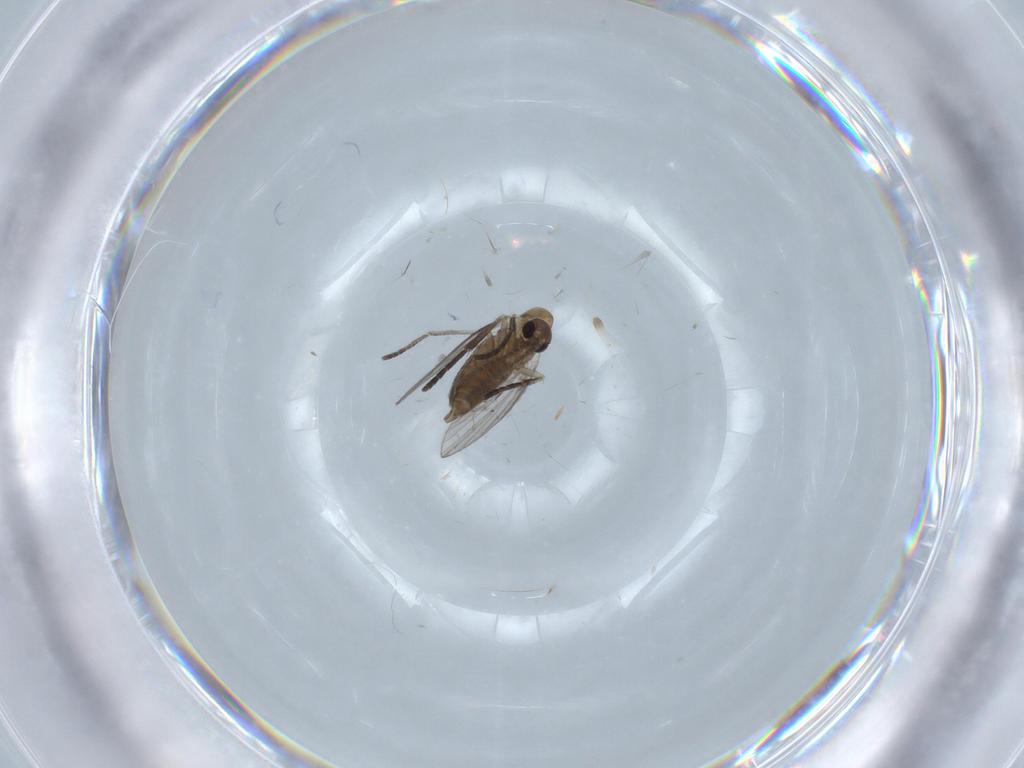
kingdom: Animalia
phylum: Arthropoda
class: Insecta
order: Diptera
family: Psychodidae
